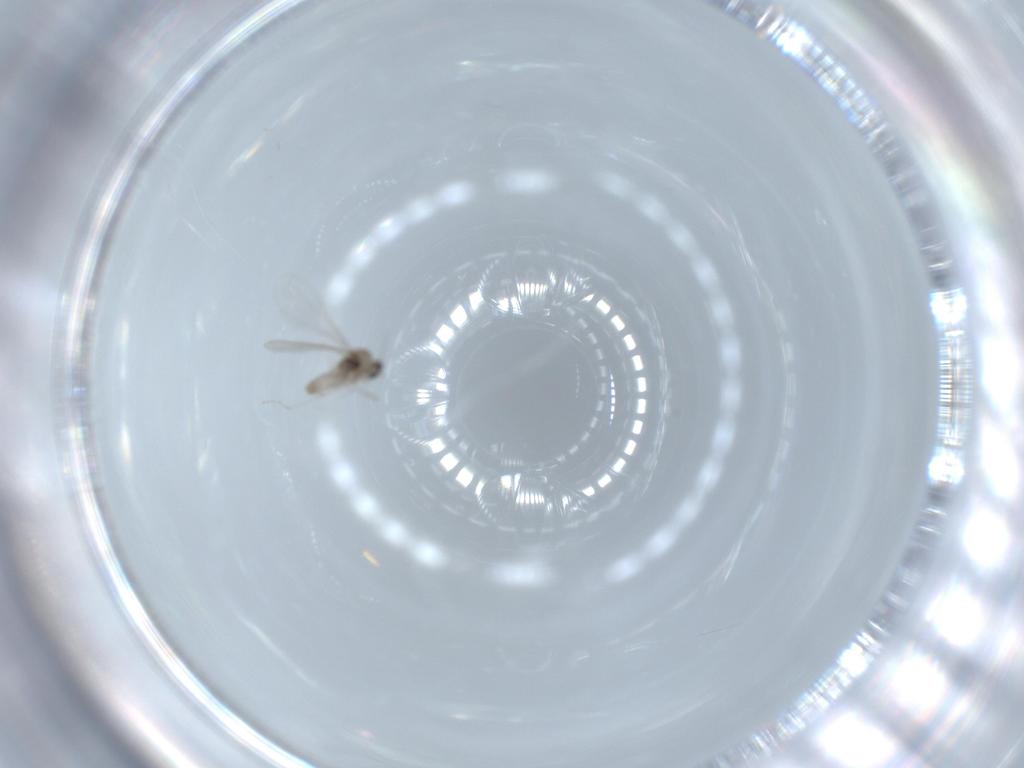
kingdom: Animalia
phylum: Arthropoda
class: Insecta
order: Diptera
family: Cecidomyiidae
